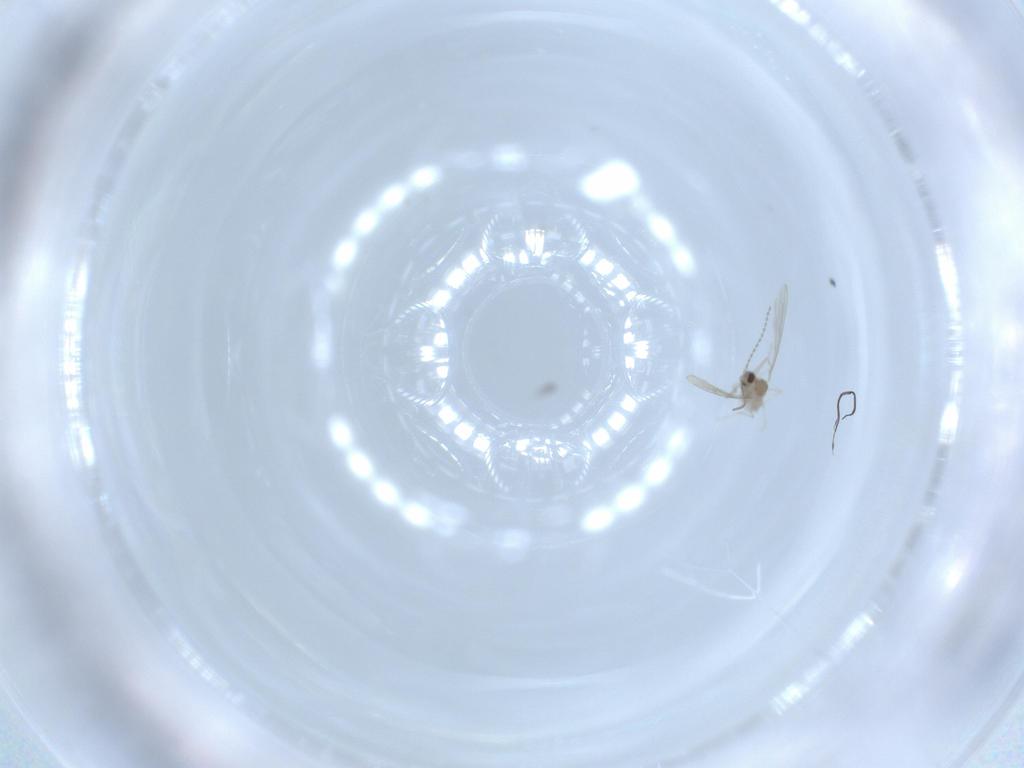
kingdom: Animalia
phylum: Arthropoda
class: Insecta
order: Diptera
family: Cecidomyiidae
